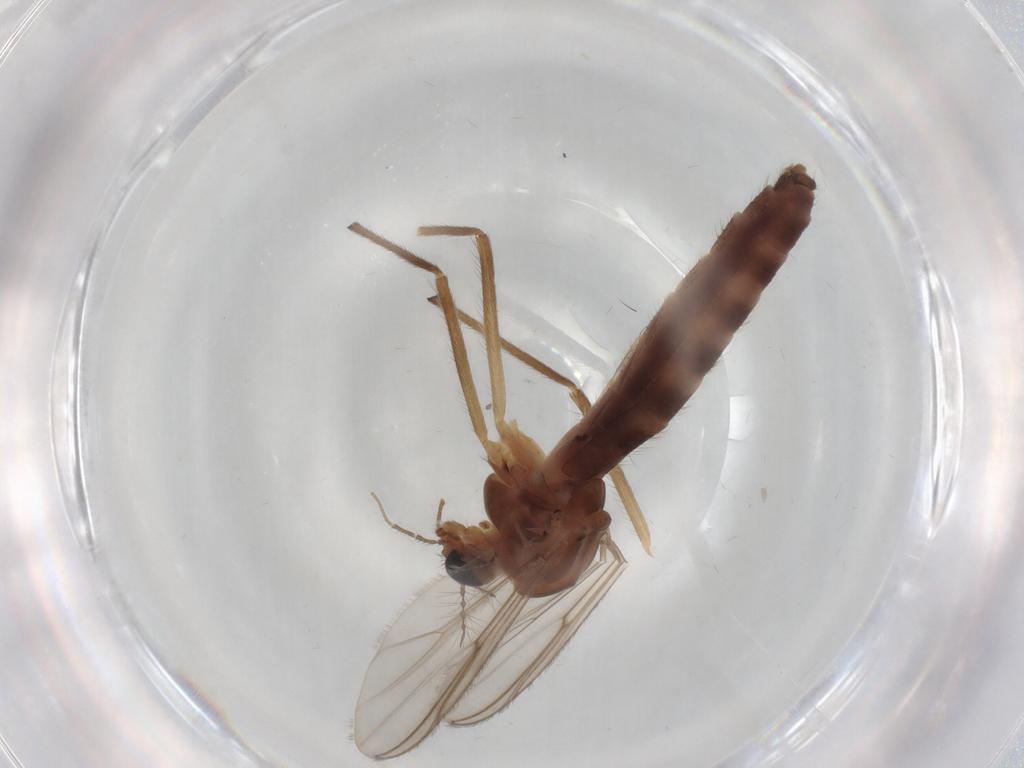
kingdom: Animalia
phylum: Arthropoda
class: Insecta
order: Diptera
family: Chironomidae
